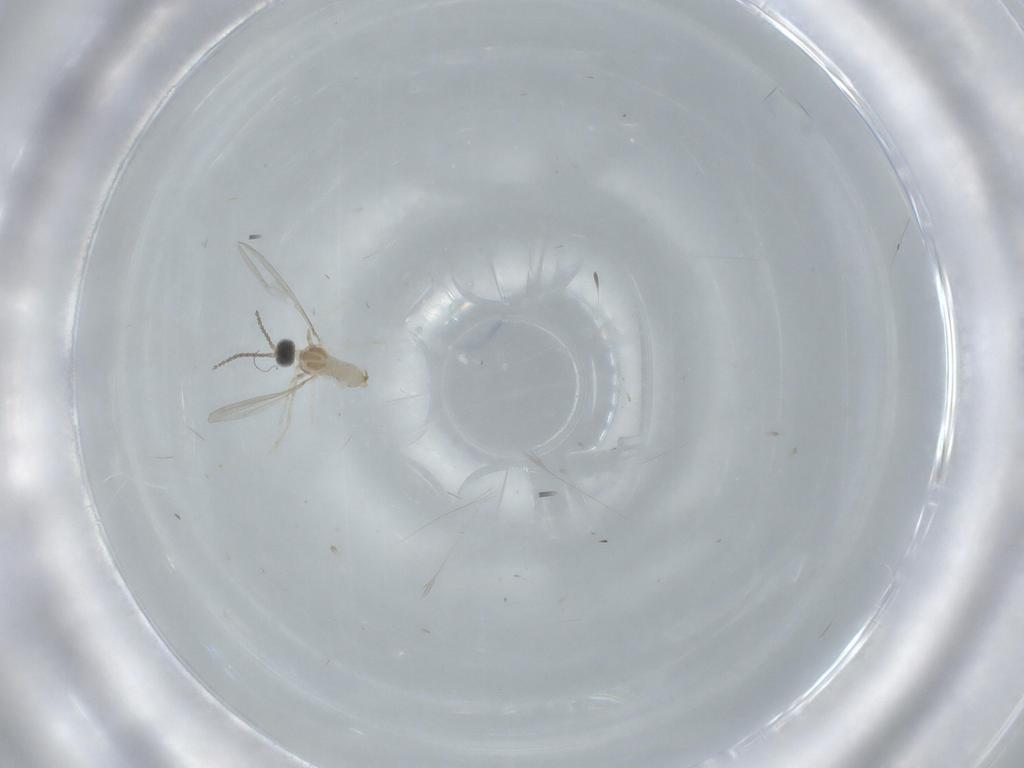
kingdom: Animalia
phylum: Arthropoda
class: Insecta
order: Diptera
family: Cecidomyiidae
